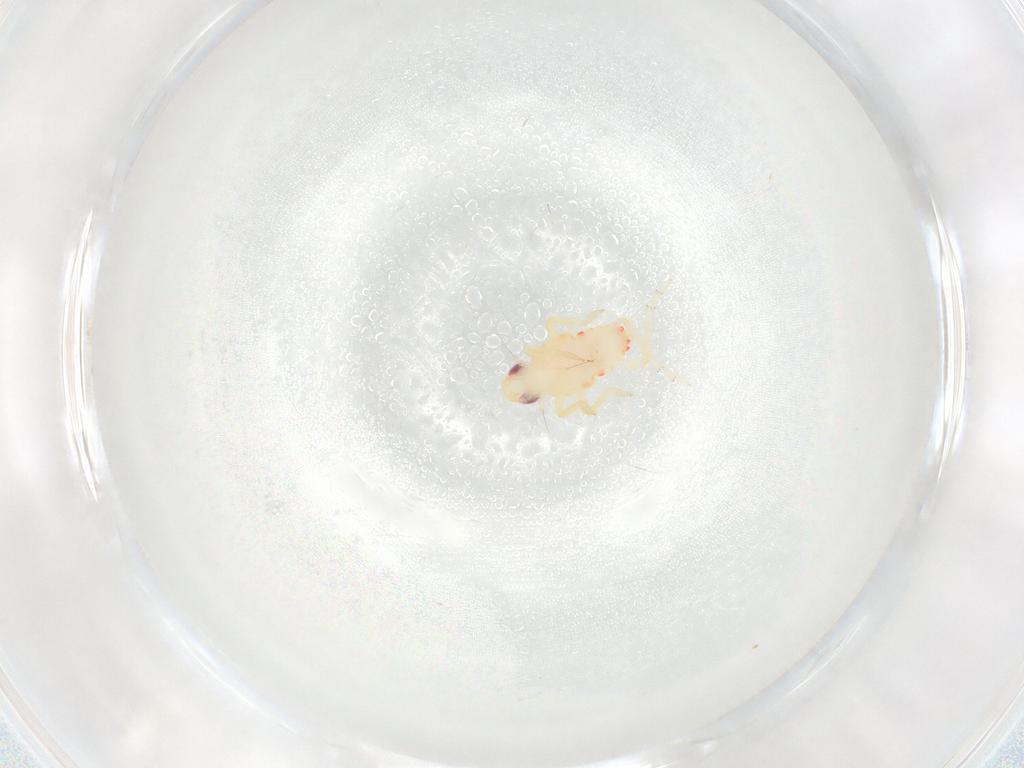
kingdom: Animalia
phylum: Arthropoda
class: Insecta
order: Hemiptera
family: Tropiduchidae
